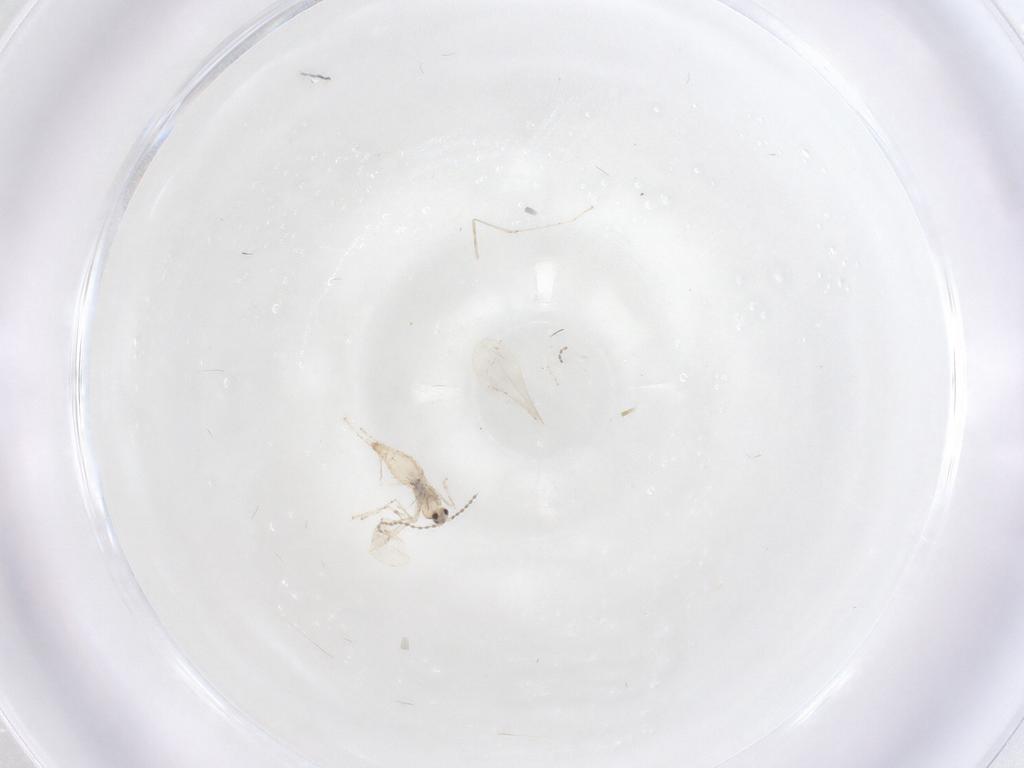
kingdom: Animalia
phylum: Arthropoda
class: Insecta
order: Diptera
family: Cecidomyiidae
